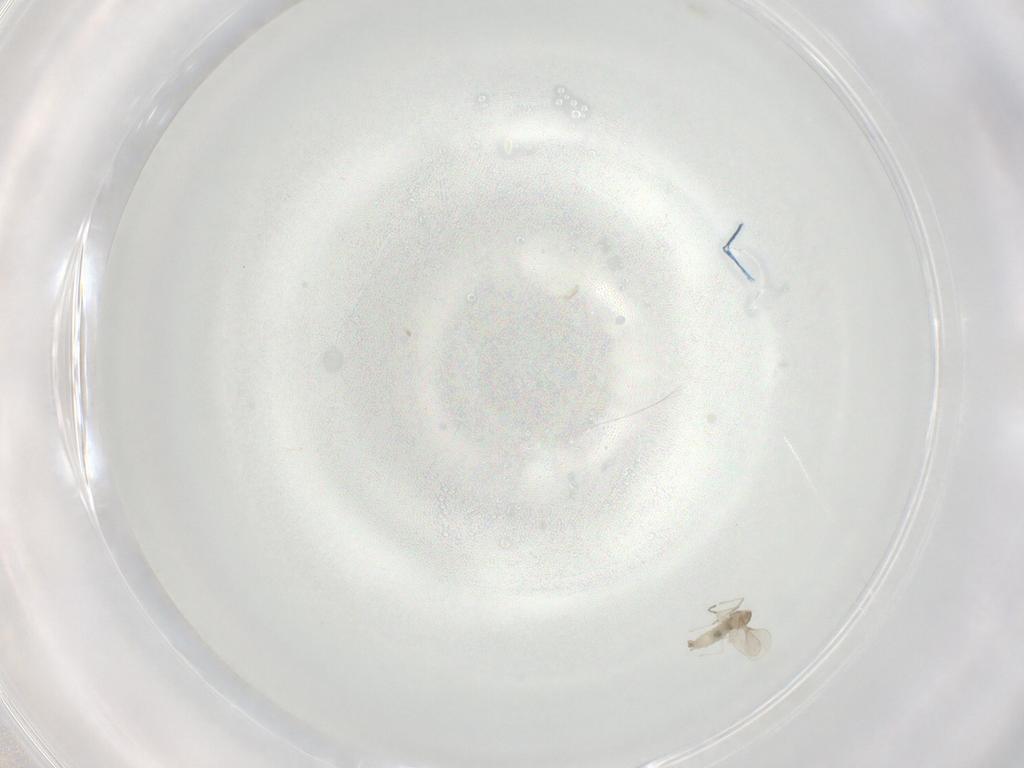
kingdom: Animalia
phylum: Arthropoda
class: Insecta
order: Diptera
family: Cecidomyiidae
